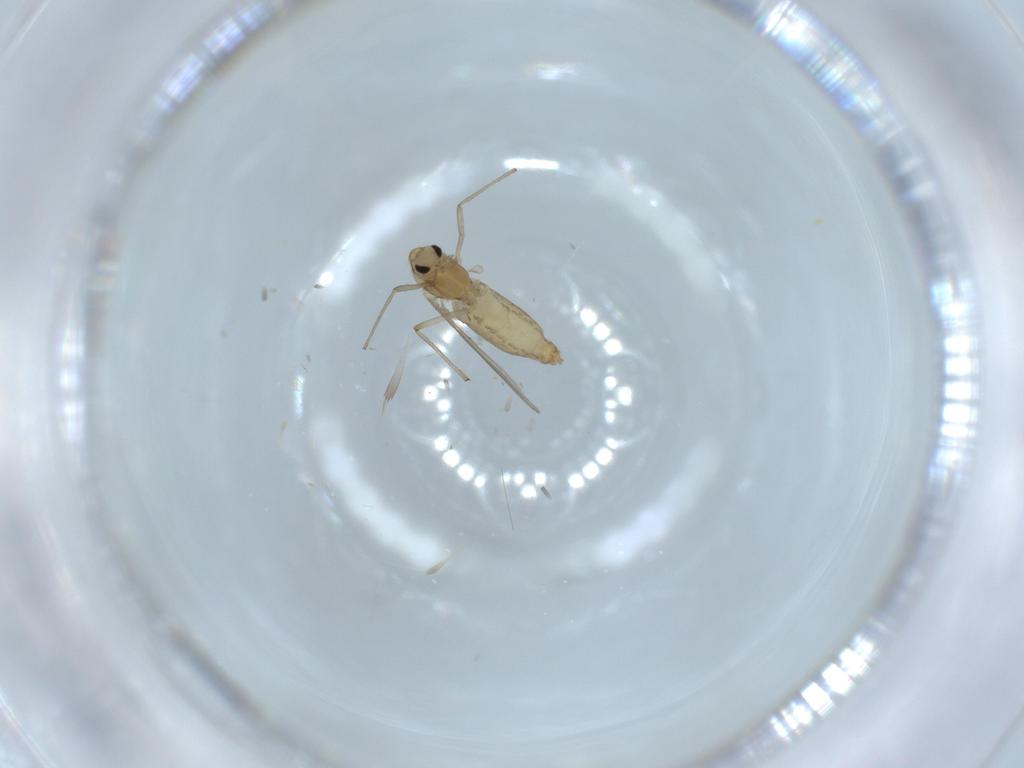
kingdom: Animalia
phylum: Arthropoda
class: Insecta
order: Diptera
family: Chironomidae
